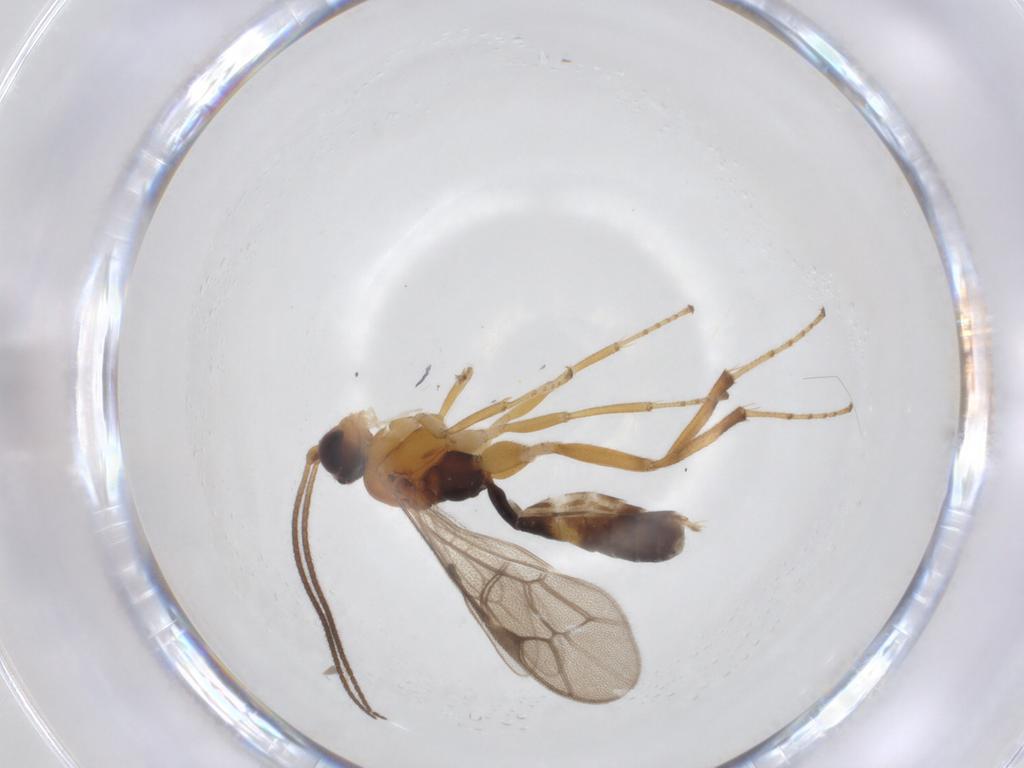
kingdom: Animalia
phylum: Arthropoda
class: Insecta
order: Hymenoptera
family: Ichneumonidae
